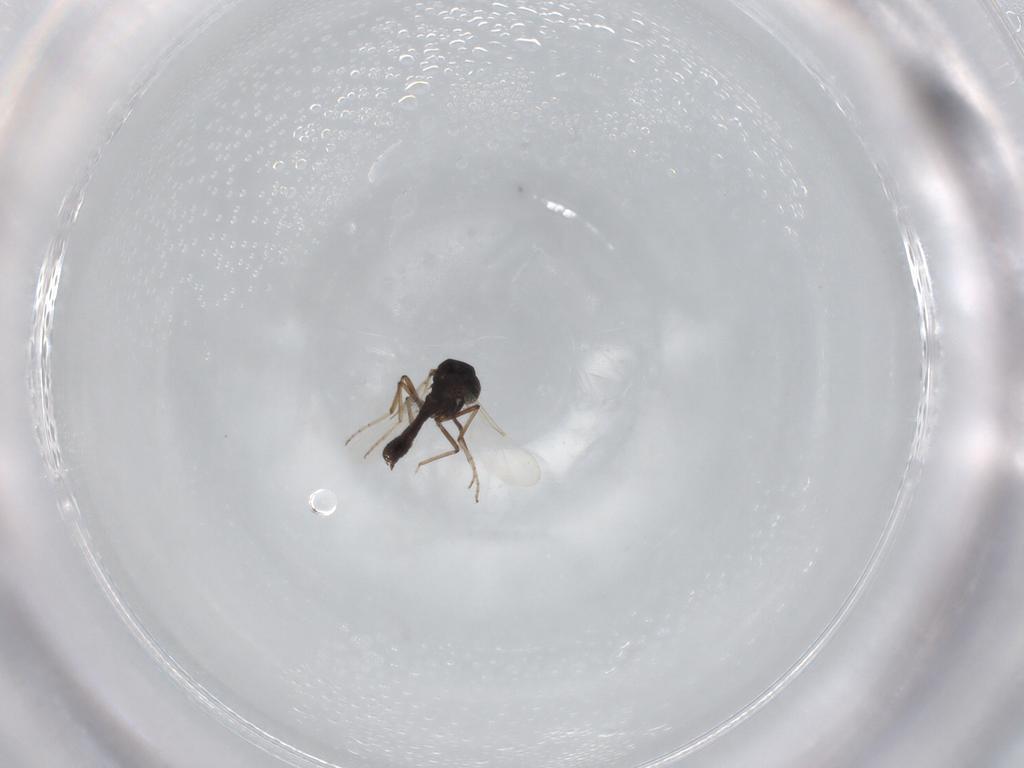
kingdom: Animalia
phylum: Arthropoda
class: Insecta
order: Diptera
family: Ceratopogonidae
